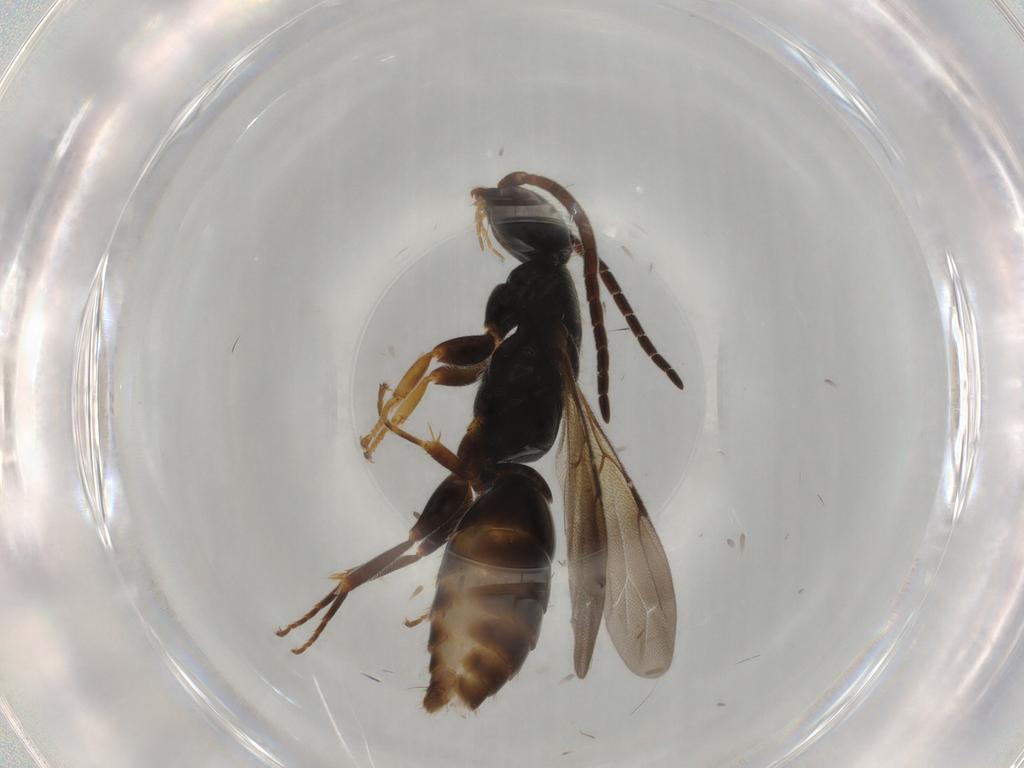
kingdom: Animalia
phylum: Arthropoda
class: Insecta
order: Hymenoptera
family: Bethylidae
